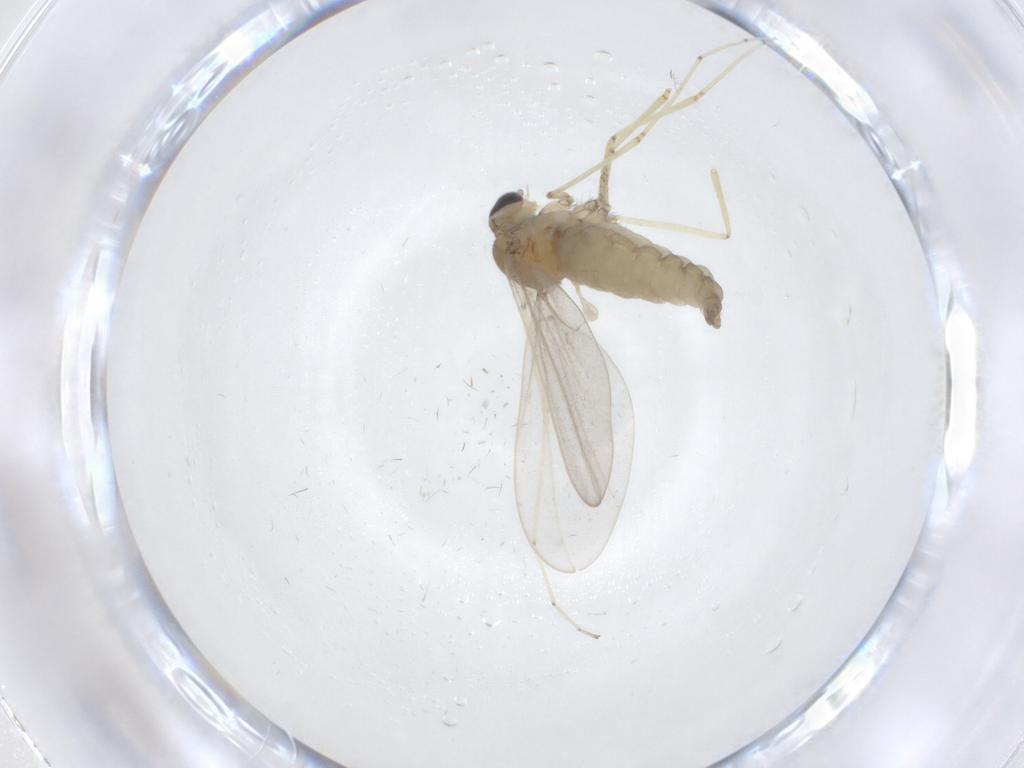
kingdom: Animalia
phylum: Arthropoda
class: Insecta
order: Diptera
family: Cecidomyiidae
